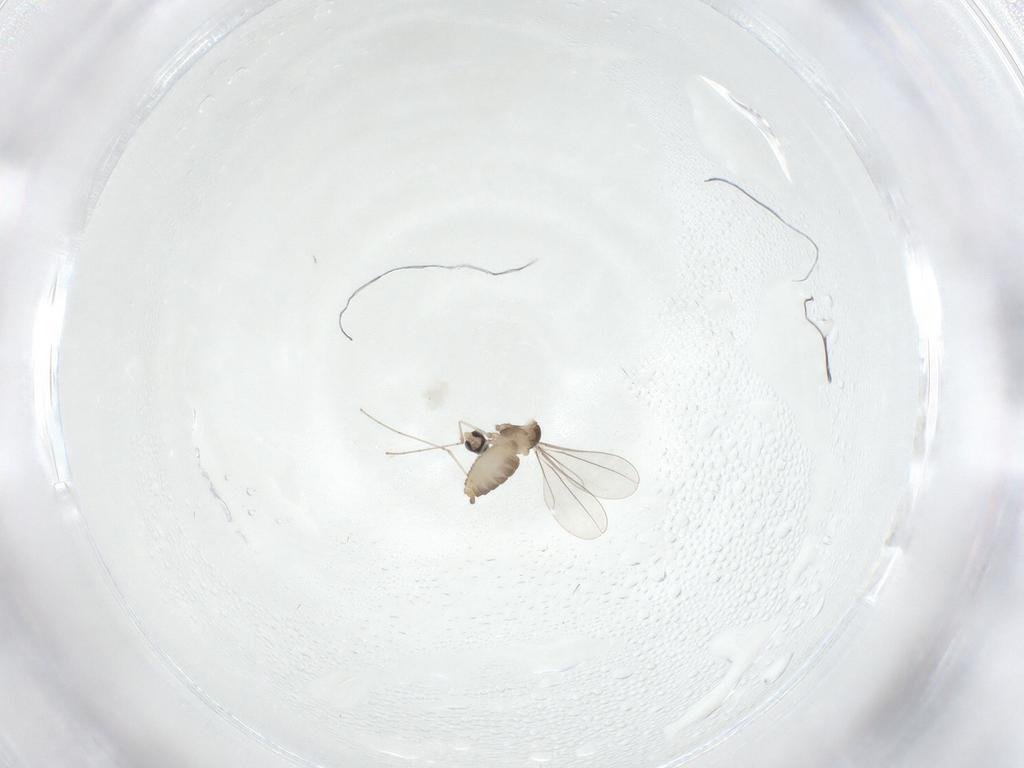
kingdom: Animalia
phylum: Arthropoda
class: Insecta
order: Diptera
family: Cecidomyiidae
